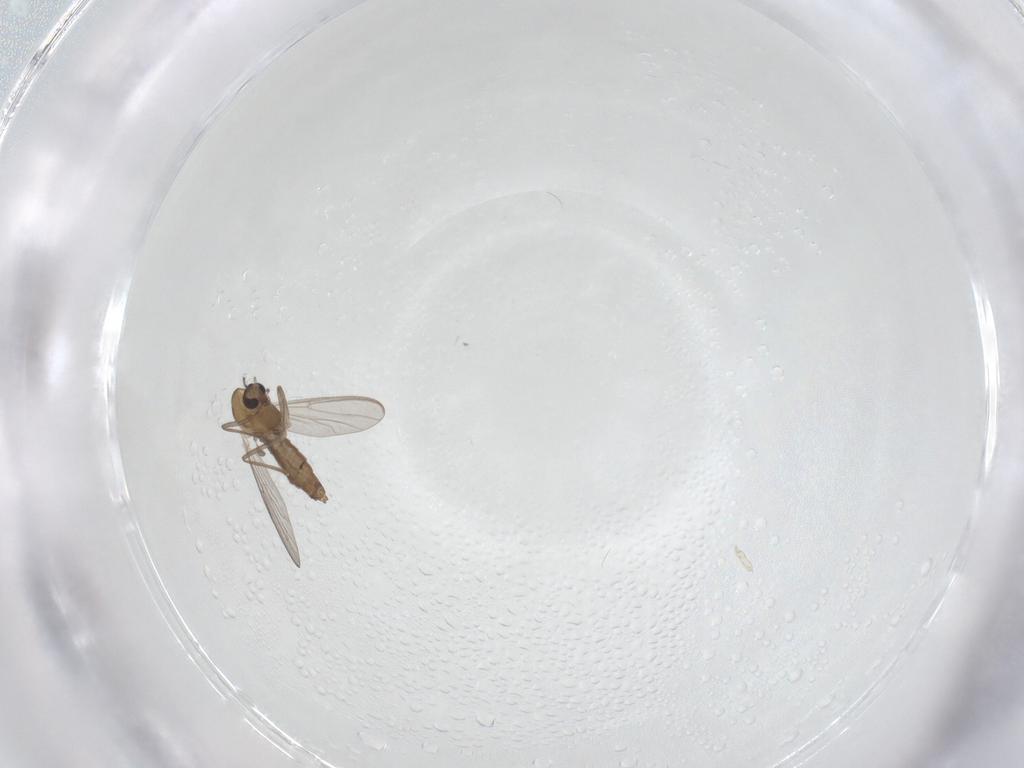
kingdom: Animalia
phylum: Arthropoda
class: Insecta
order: Diptera
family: Chironomidae
